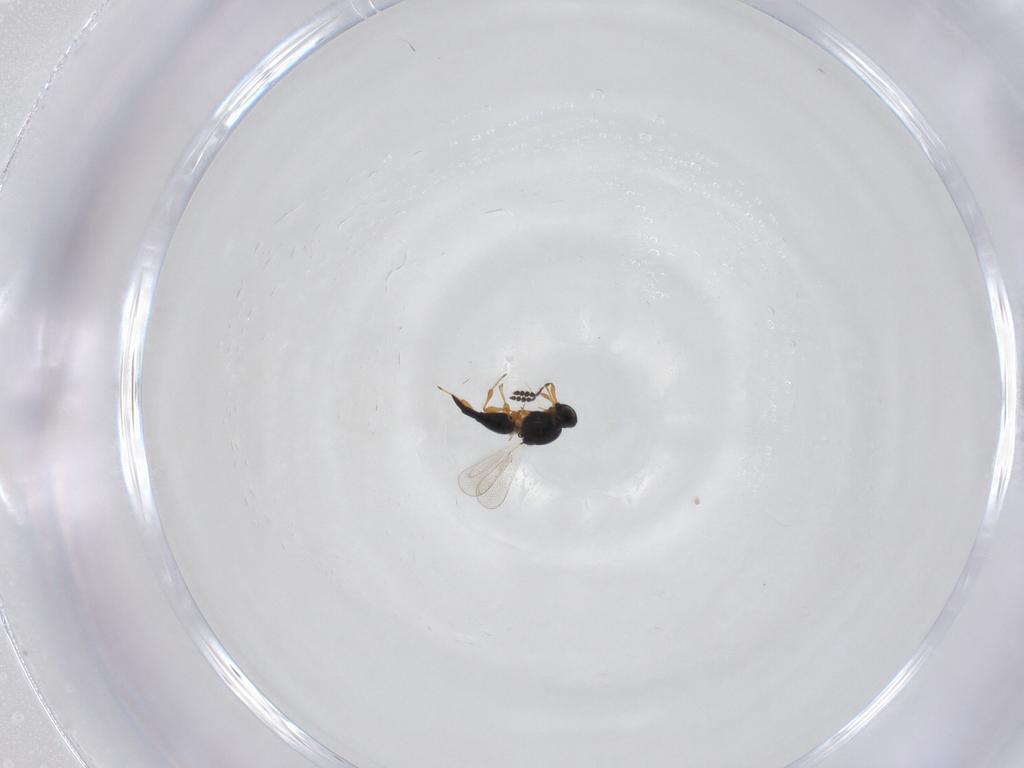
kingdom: Animalia
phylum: Arthropoda
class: Insecta
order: Hymenoptera
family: Platygastridae
